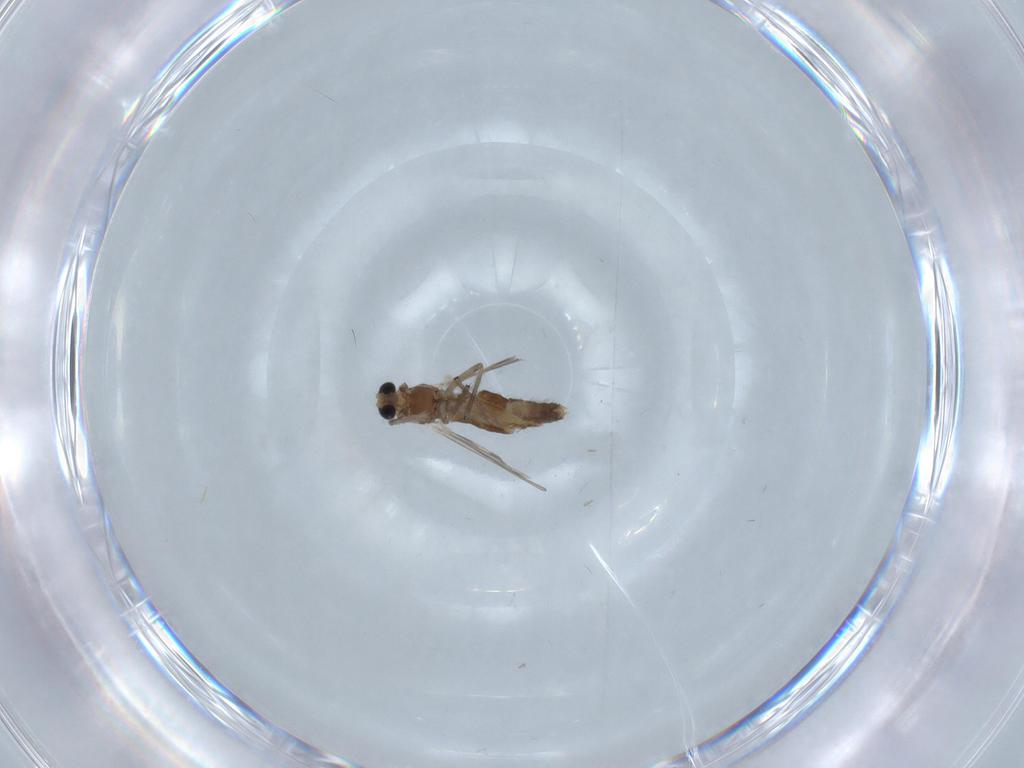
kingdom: Animalia
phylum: Arthropoda
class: Insecta
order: Diptera
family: Chironomidae
